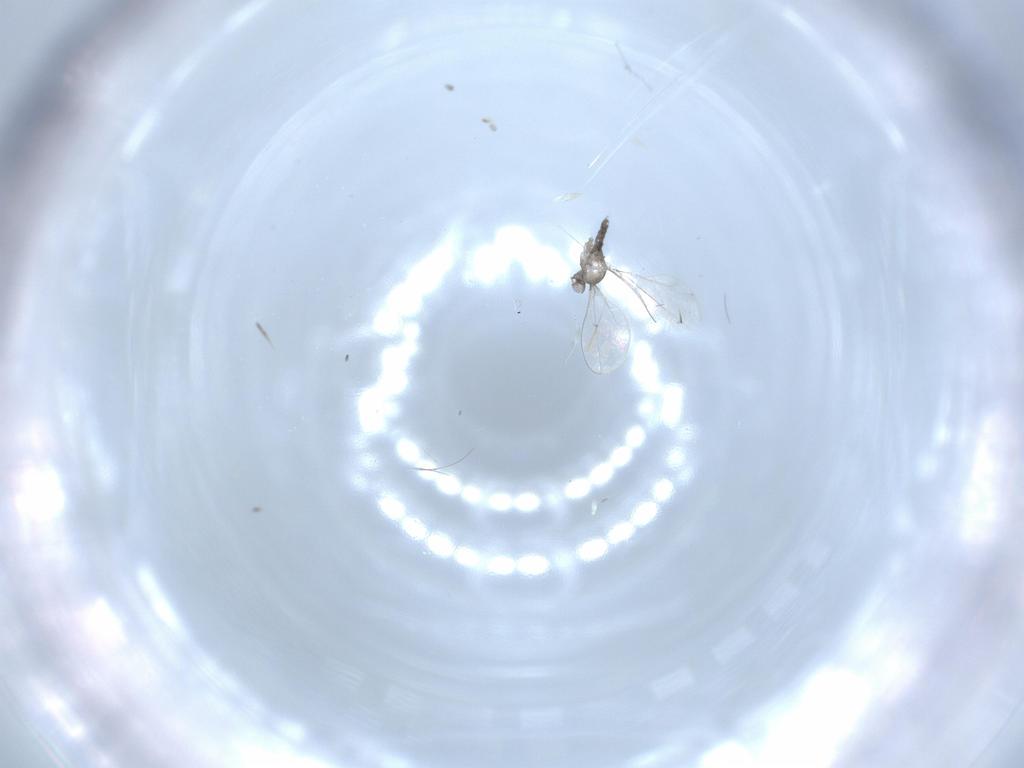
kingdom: Animalia
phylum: Arthropoda
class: Insecta
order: Diptera
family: Cecidomyiidae
